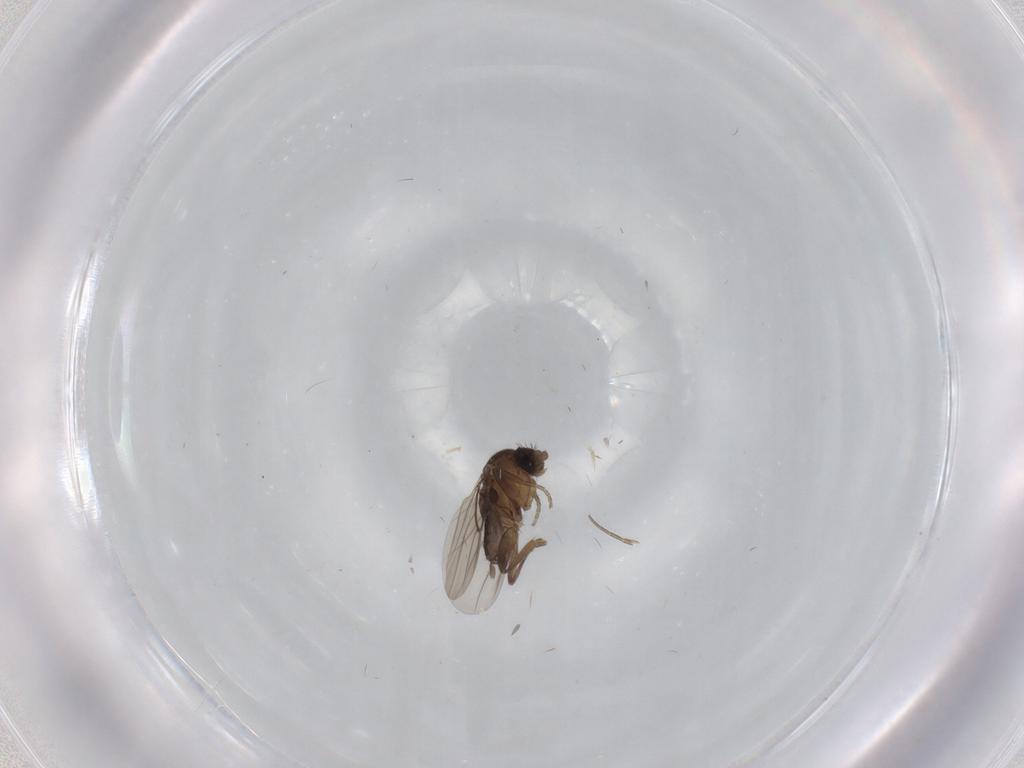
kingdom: Animalia
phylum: Arthropoda
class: Insecta
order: Diptera
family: Phoridae
